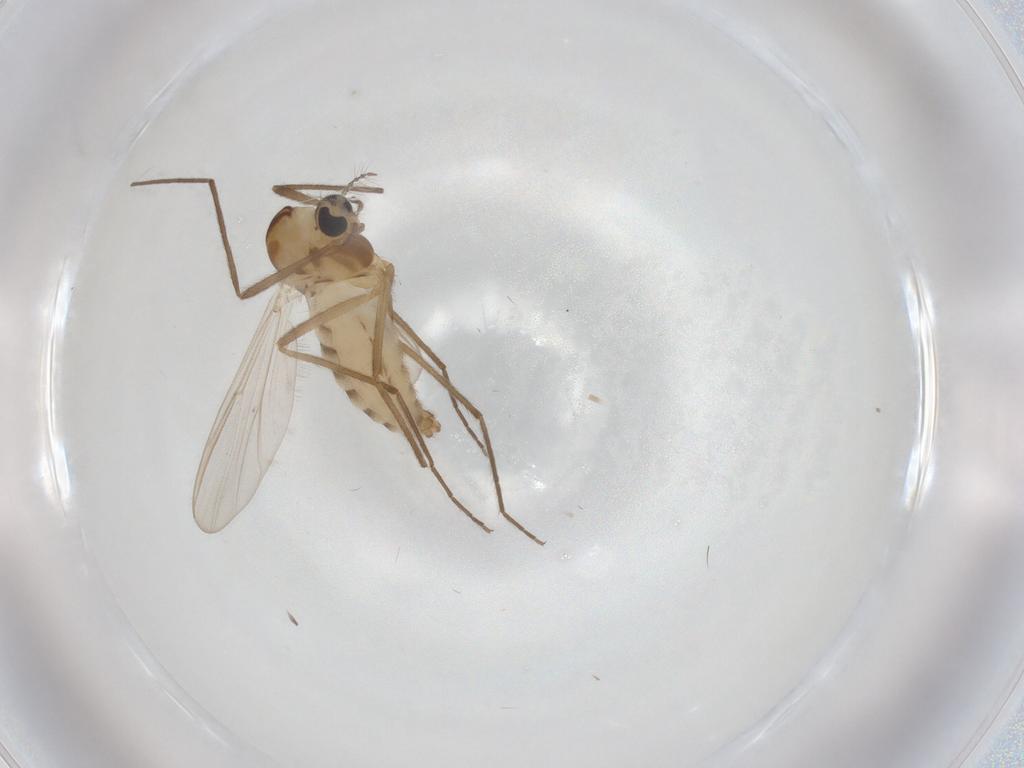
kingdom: Animalia
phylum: Arthropoda
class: Insecta
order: Diptera
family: Chironomidae
